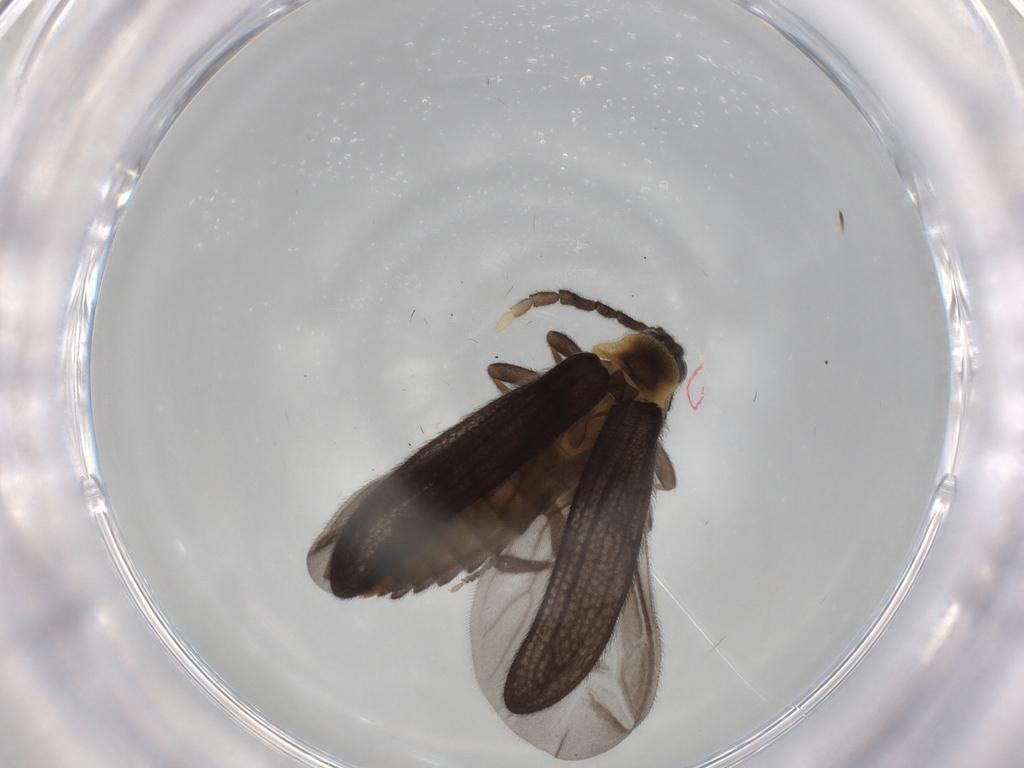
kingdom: Animalia
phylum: Arthropoda
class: Insecta
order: Coleoptera
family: Lycidae
